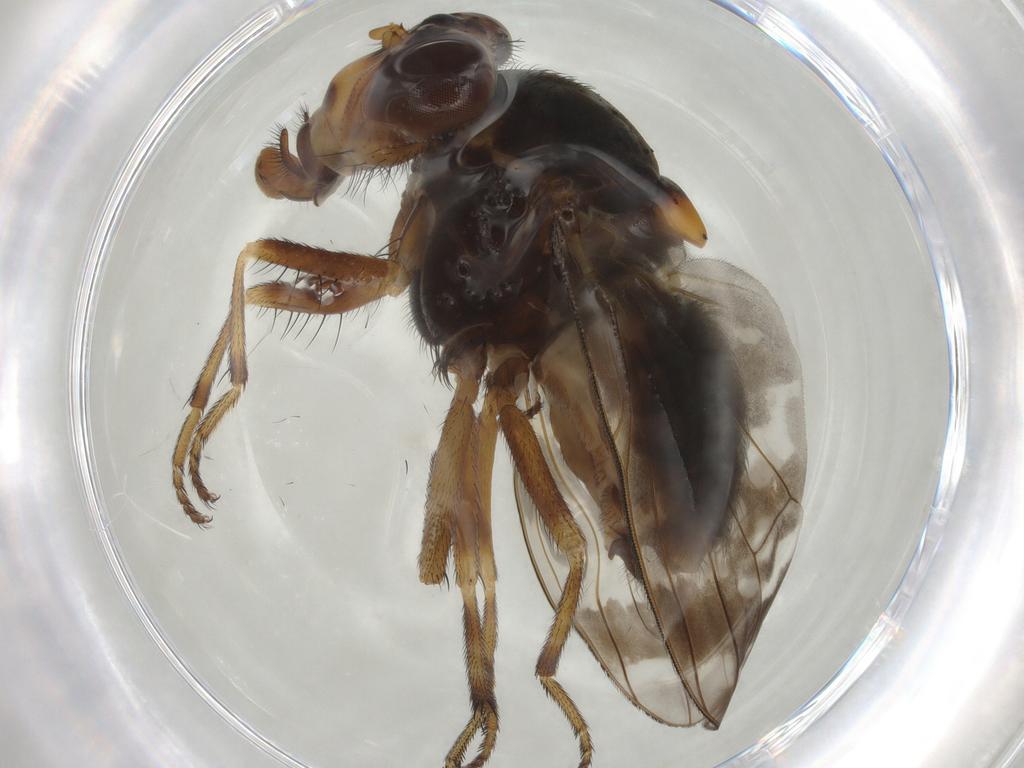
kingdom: Animalia
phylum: Arthropoda
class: Insecta
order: Diptera
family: Lauxaniidae
